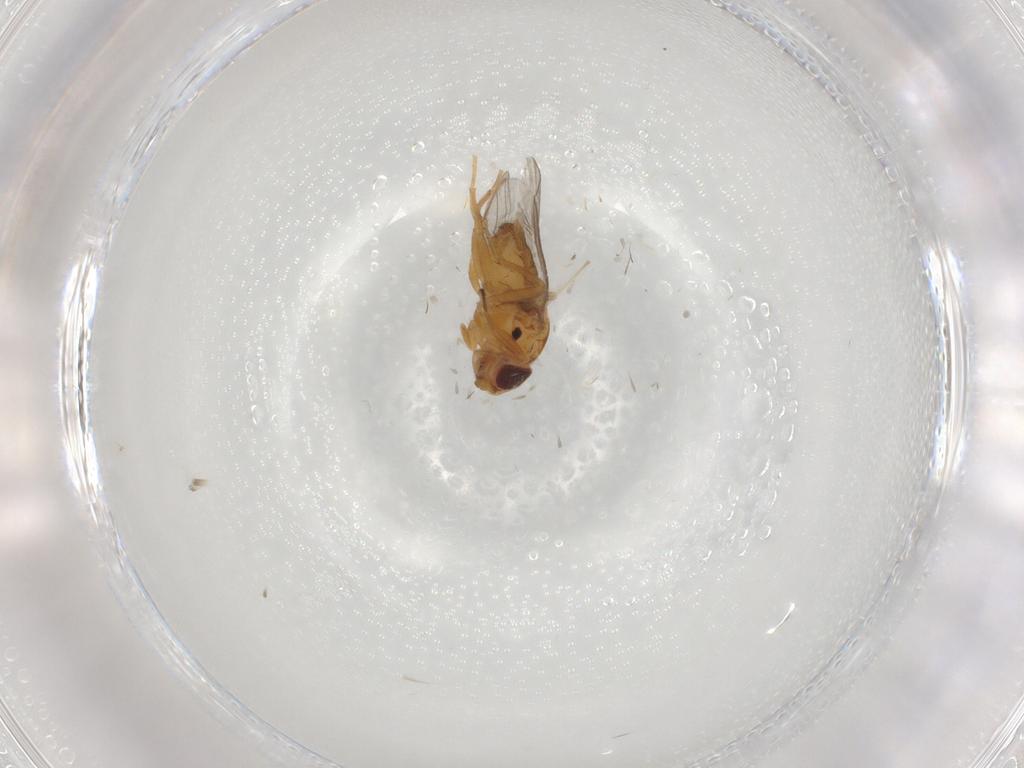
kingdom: Animalia
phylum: Arthropoda
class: Insecta
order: Diptera
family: Chloropidae
